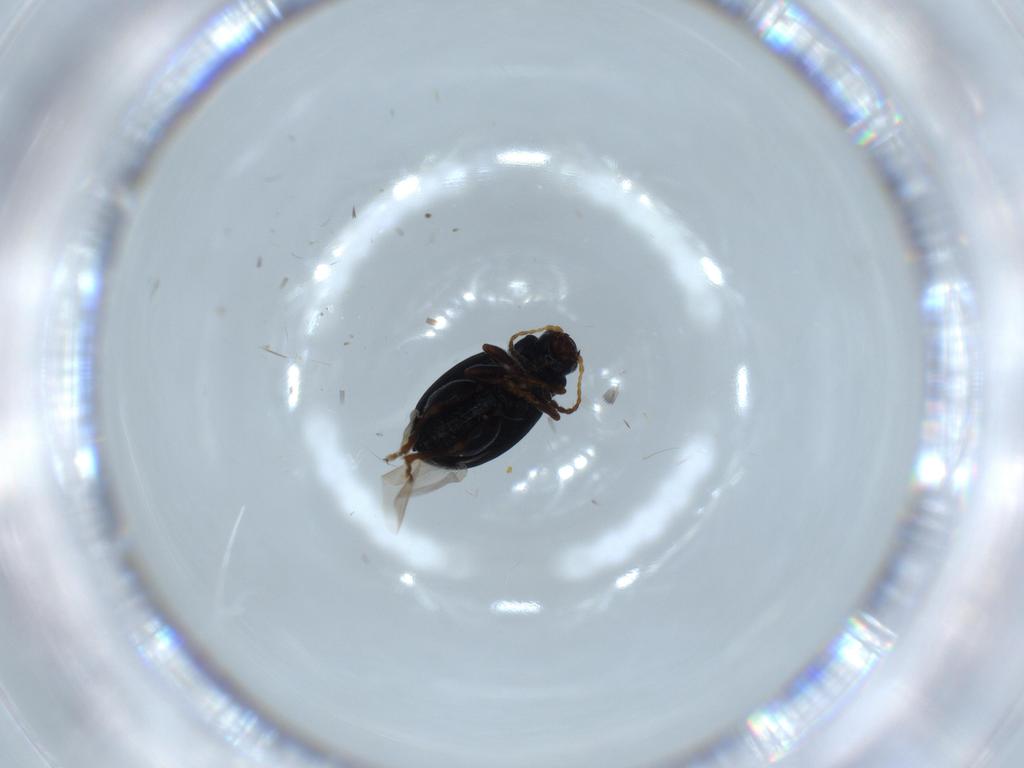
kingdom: Animalia
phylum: Arthropoda
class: Insecta
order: Coleoptera
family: Chrysomelidae
